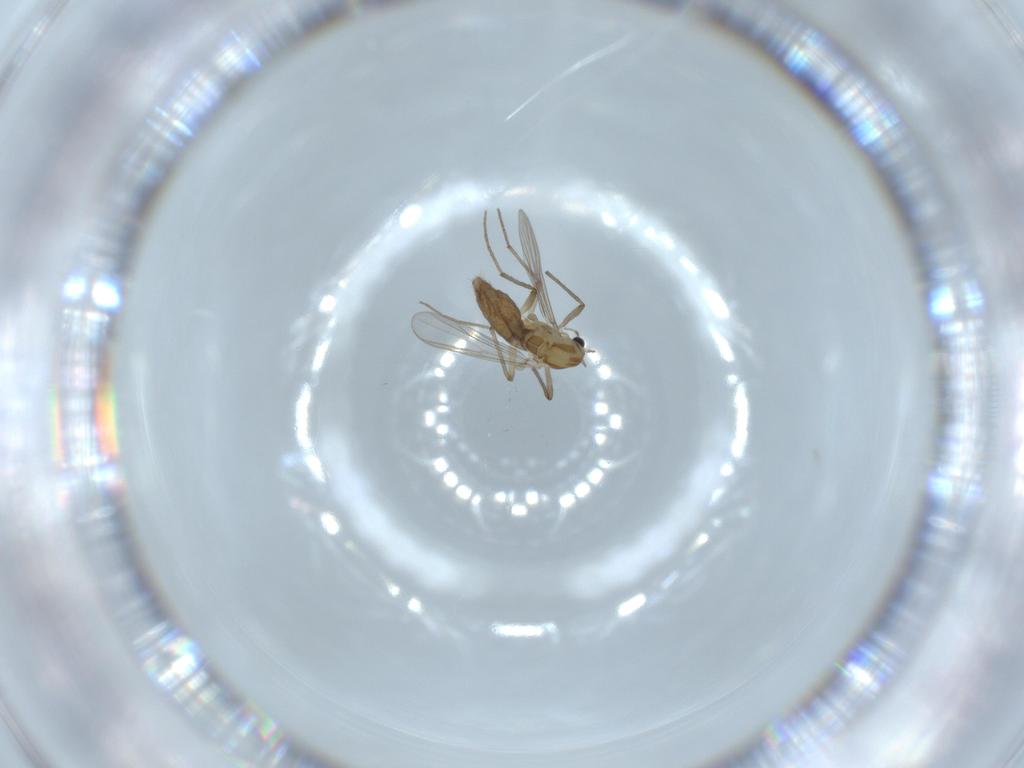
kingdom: Animalia
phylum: Arthropoda
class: Insecta
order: Diptera
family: Chironomidae
